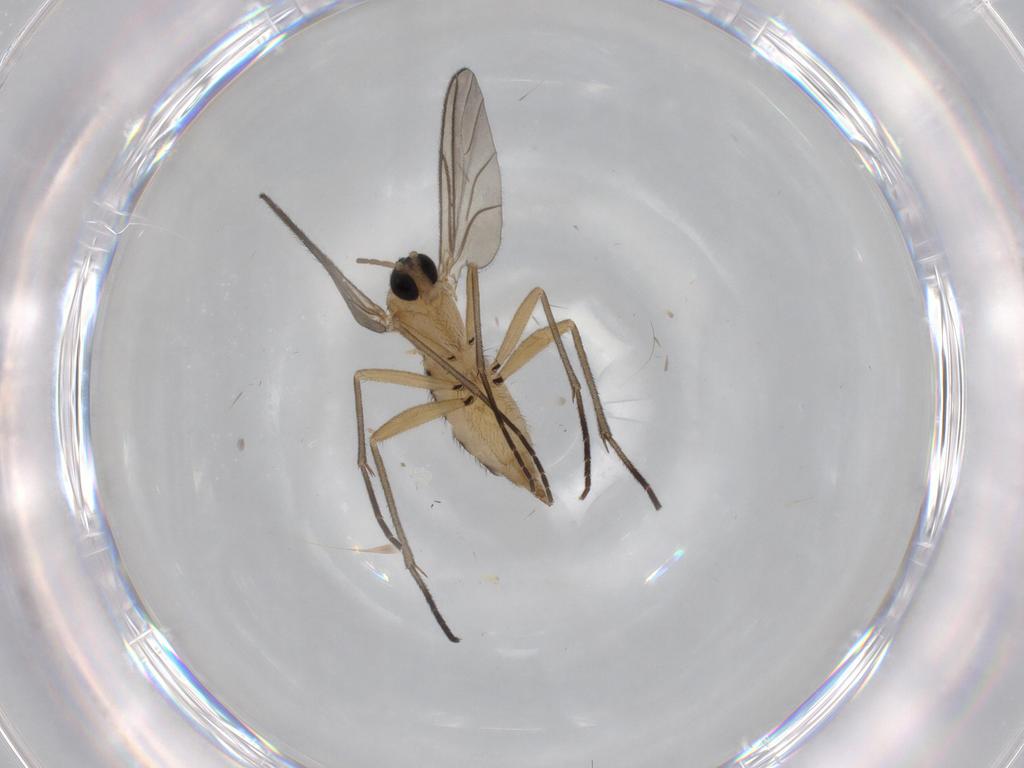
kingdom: Animalia
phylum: Arthropoda
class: Insecta
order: Diptera
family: Sciaridae
